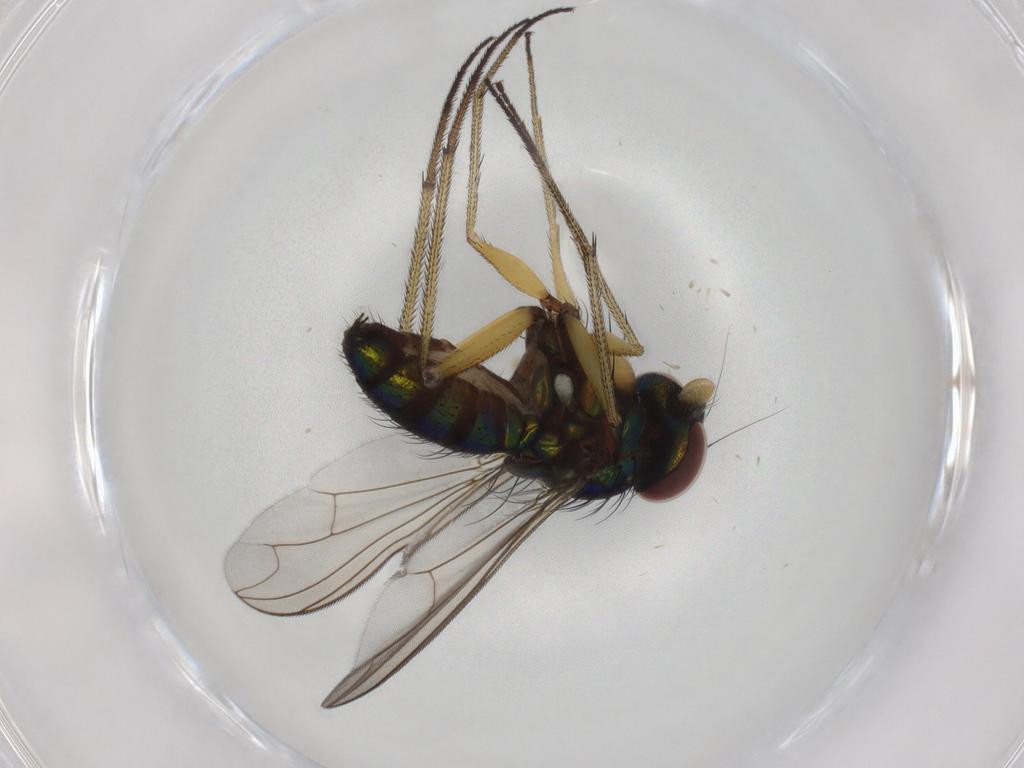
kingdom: Animalia
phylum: Arthropoda
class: Insecta
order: Diptera
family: Dolichopodidae
